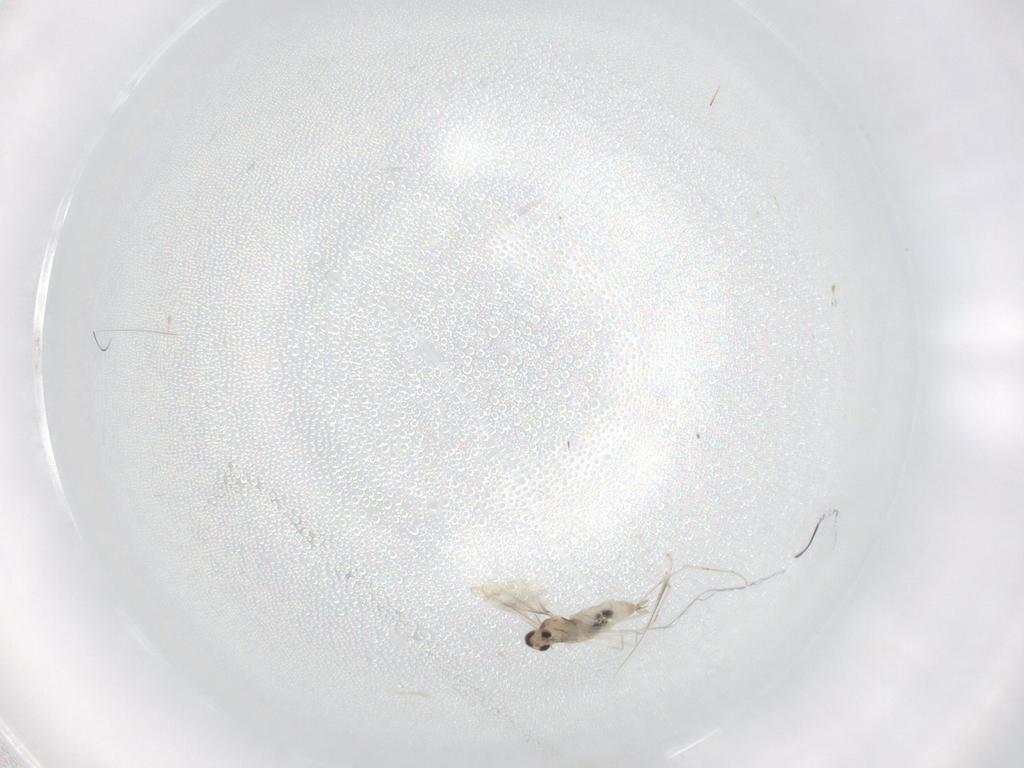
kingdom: Animalia
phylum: Arthropoda
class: Insecta
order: Diptera
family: Cecidomyiidae
